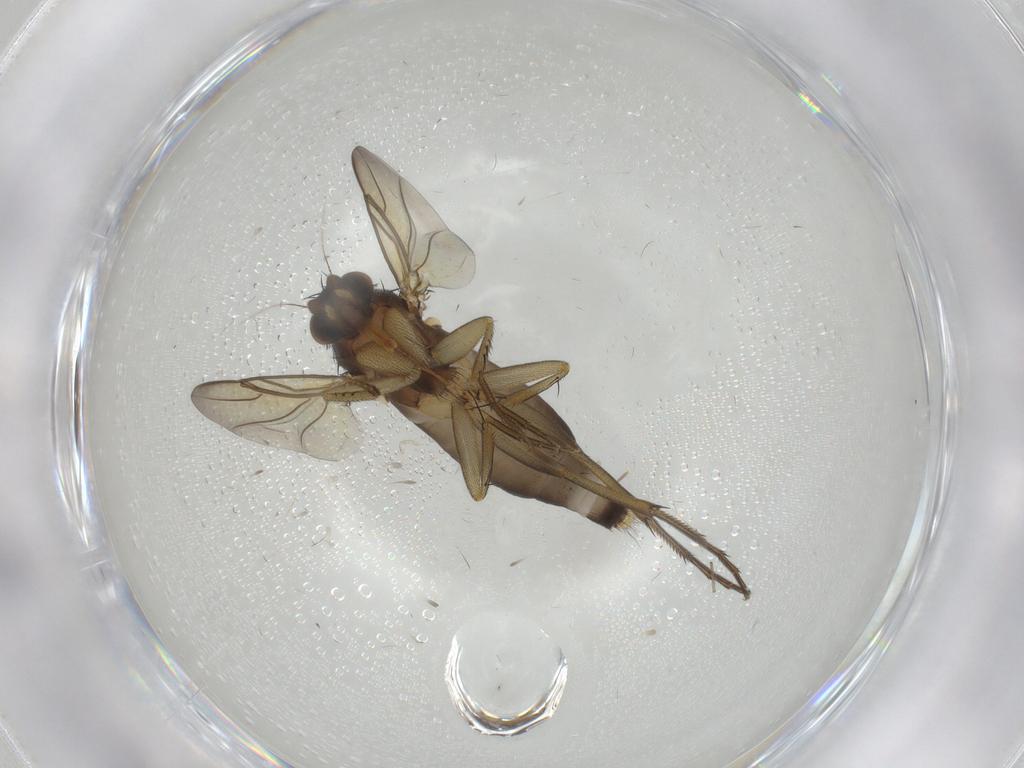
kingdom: Animalia
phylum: Arthropoda
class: Insecta
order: Diptera
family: Phoridae
